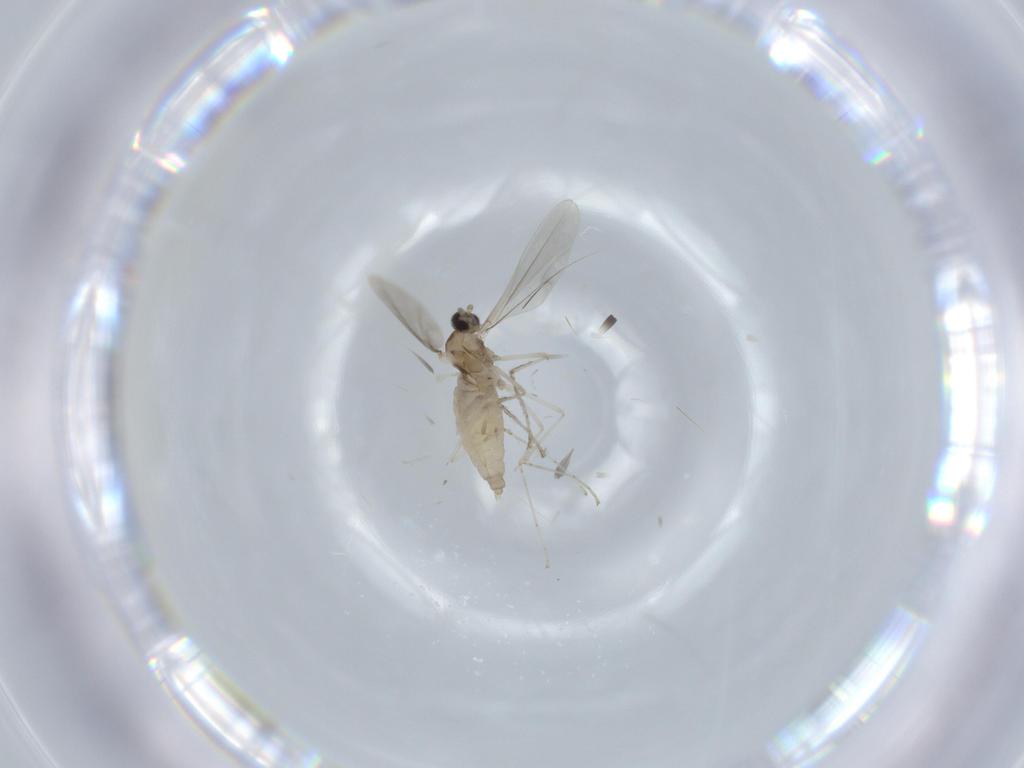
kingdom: Animalia
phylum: Arthropoda
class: Insecta
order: Diptera
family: Cecidomyiidae
